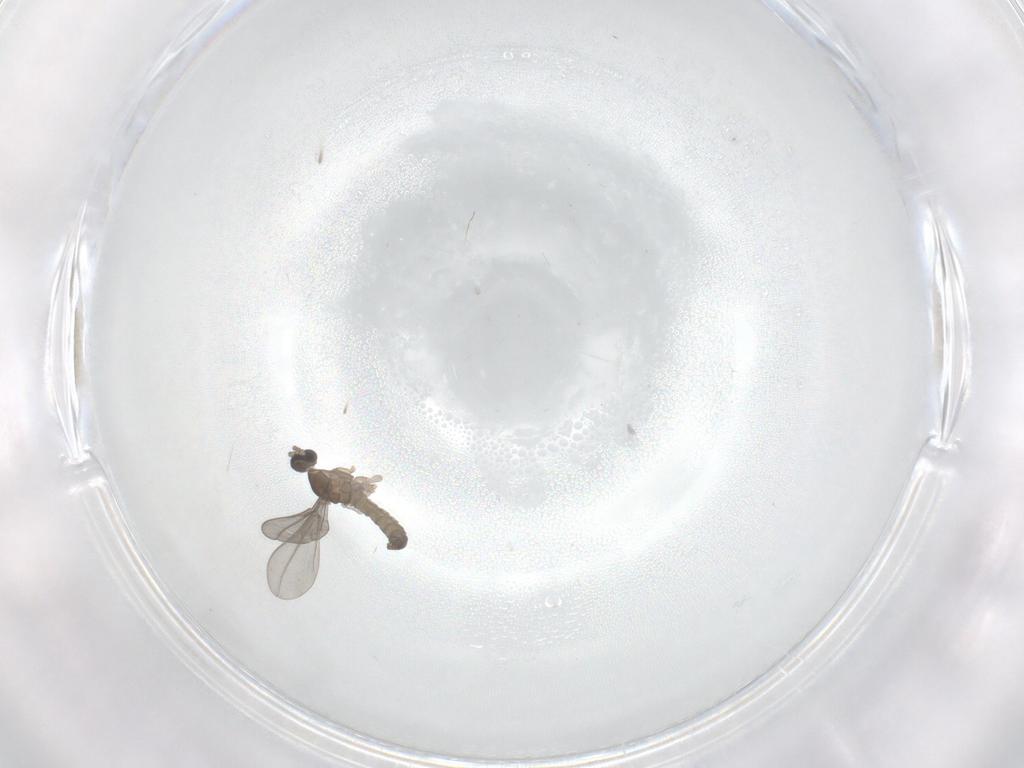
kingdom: Animalia
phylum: Arthropoda
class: Insecta
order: Diptera
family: Cecidomyiidae
